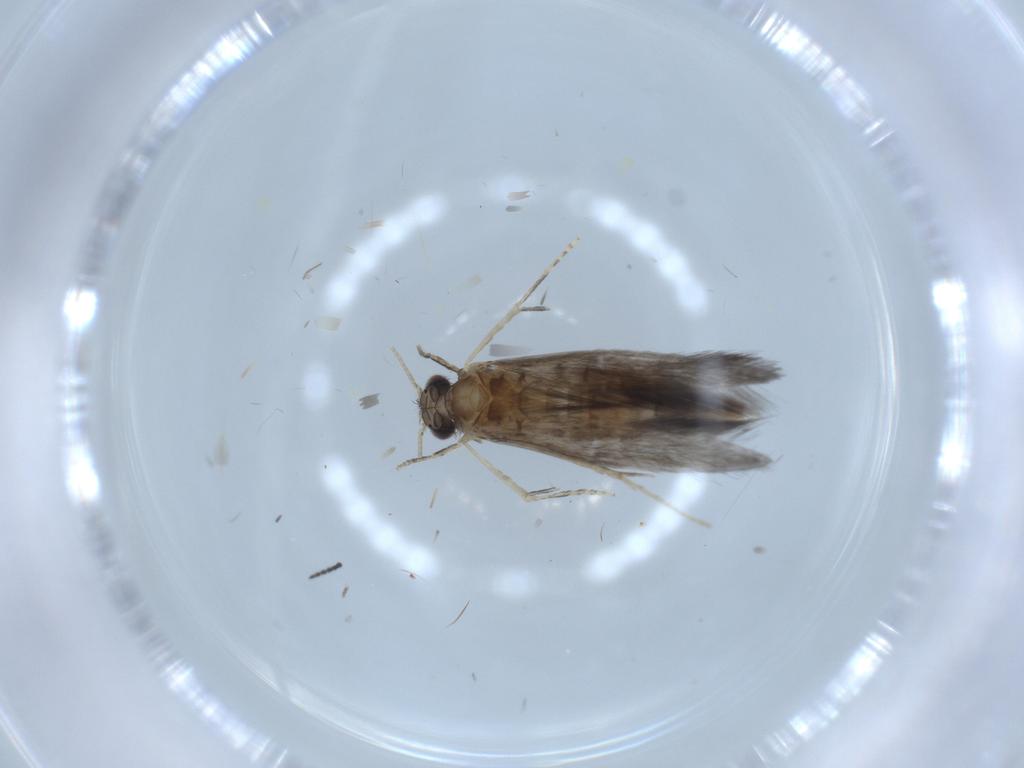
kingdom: Animalia
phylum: Arthropoda
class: Insecta
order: Trichoptera
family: Hydroptilidae
